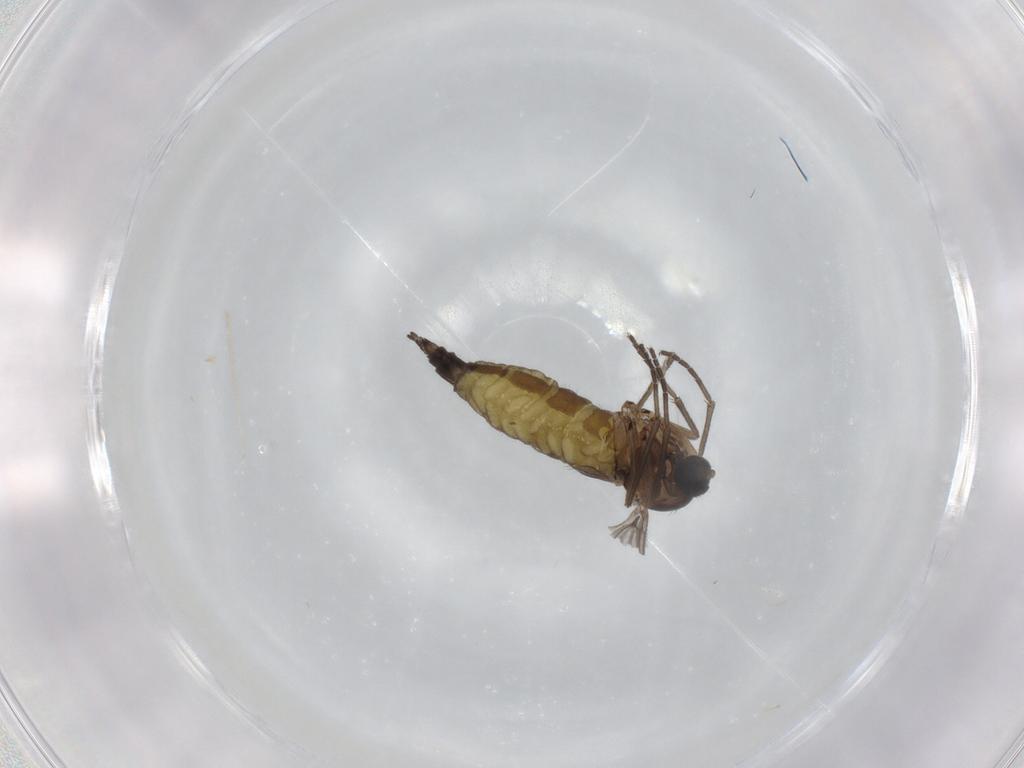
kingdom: Animalia
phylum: Arthropoda
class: Insecta
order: Diptera
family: Sciaridae
